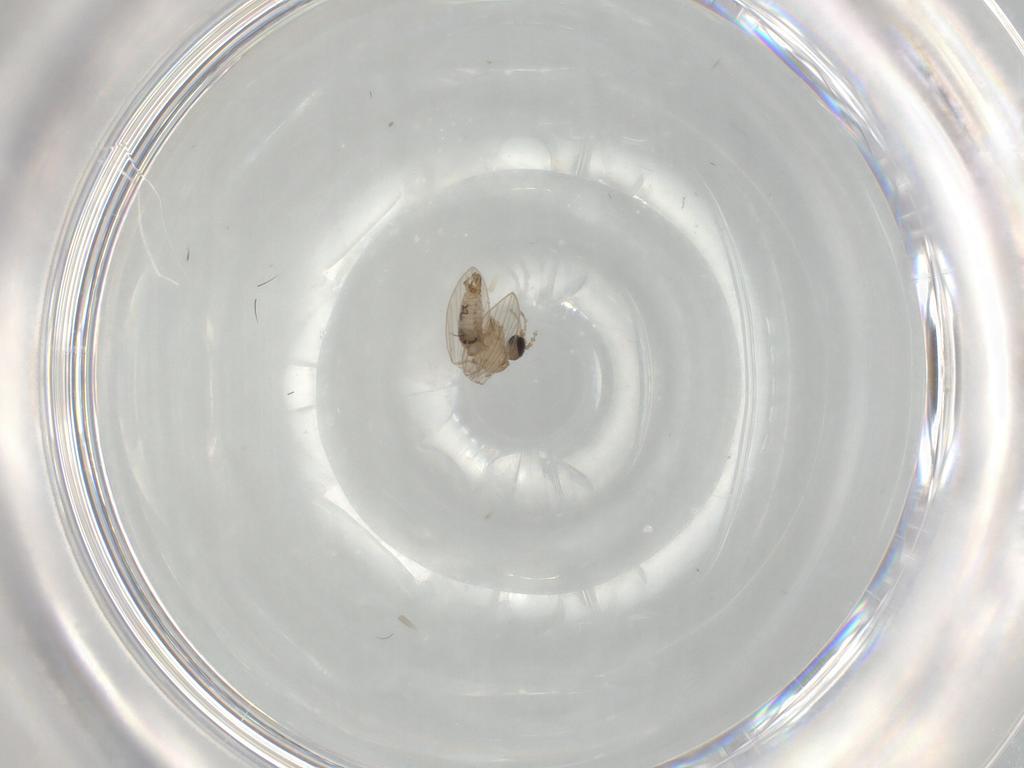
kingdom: Animalia
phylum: Arthropoda
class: Insecta
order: Diptera
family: Psychodidae
